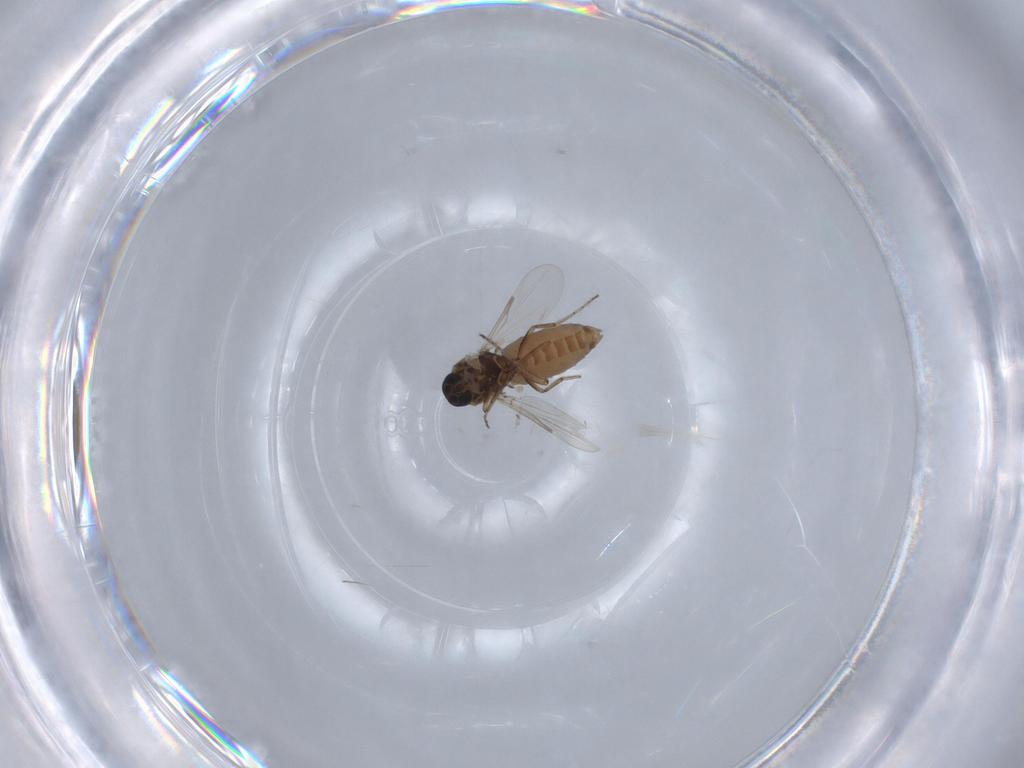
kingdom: Animalia
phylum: Arthropoda
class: Insecta
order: Diptera
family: Ceratopogonidae
